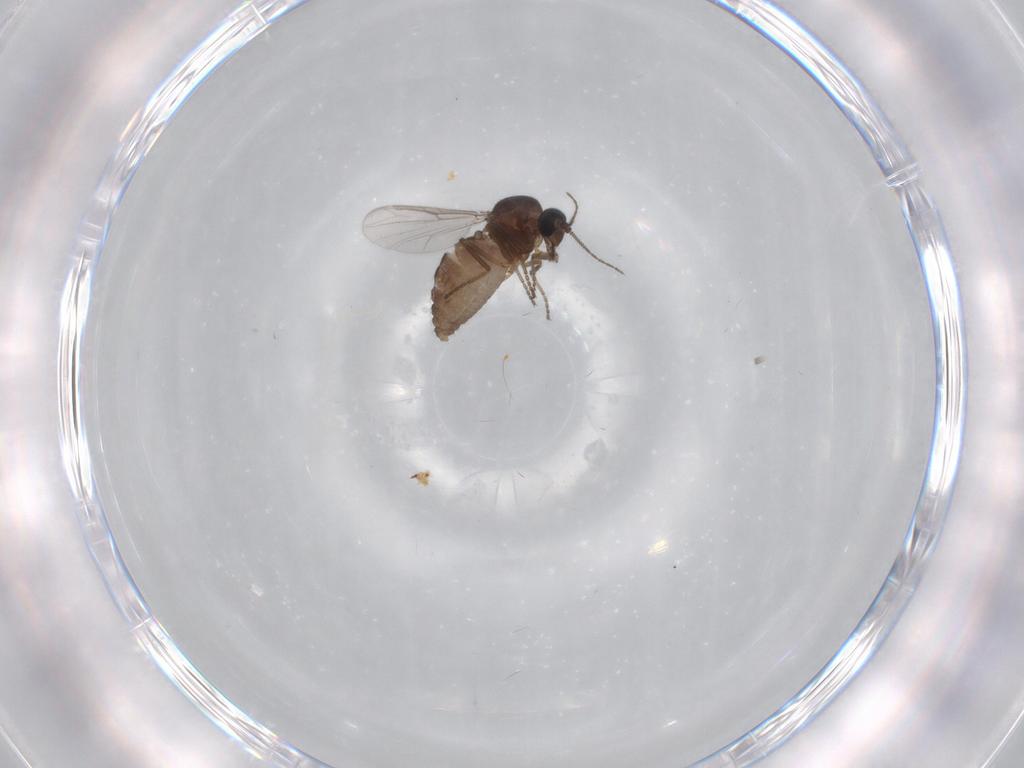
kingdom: Animalia
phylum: Arthropoda
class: Insecta
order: Diptera
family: Ceratopogonidae
